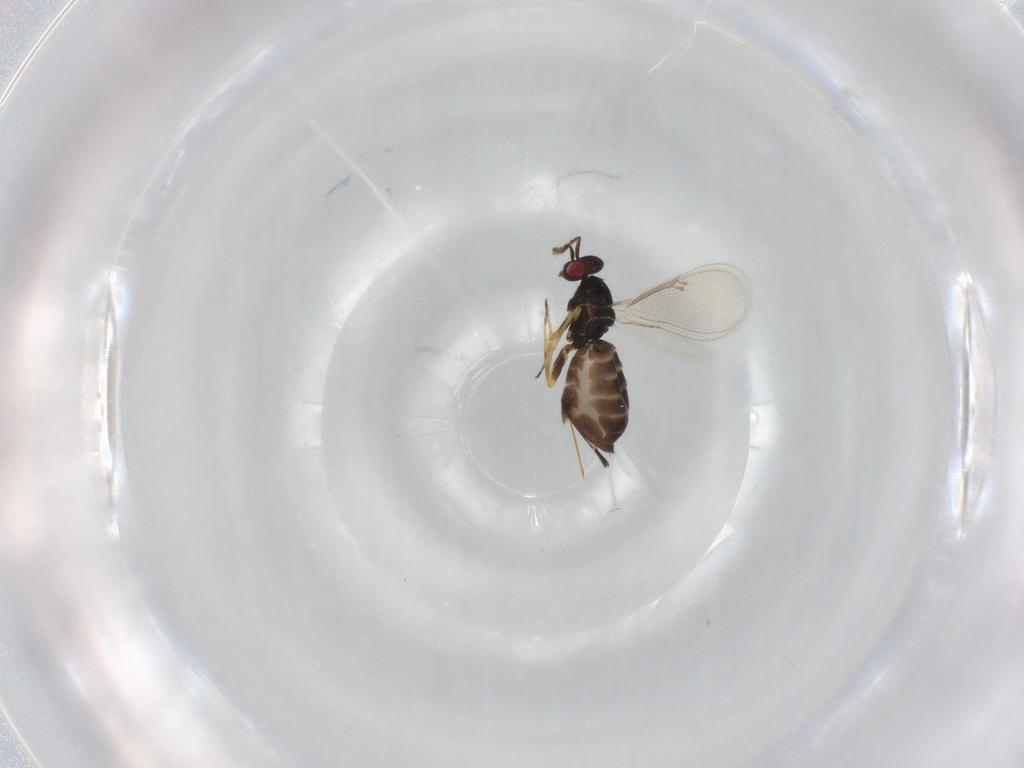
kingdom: Animalia
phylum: Arthropoda
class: Insecta
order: Hymenoptera
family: Eulophidae
